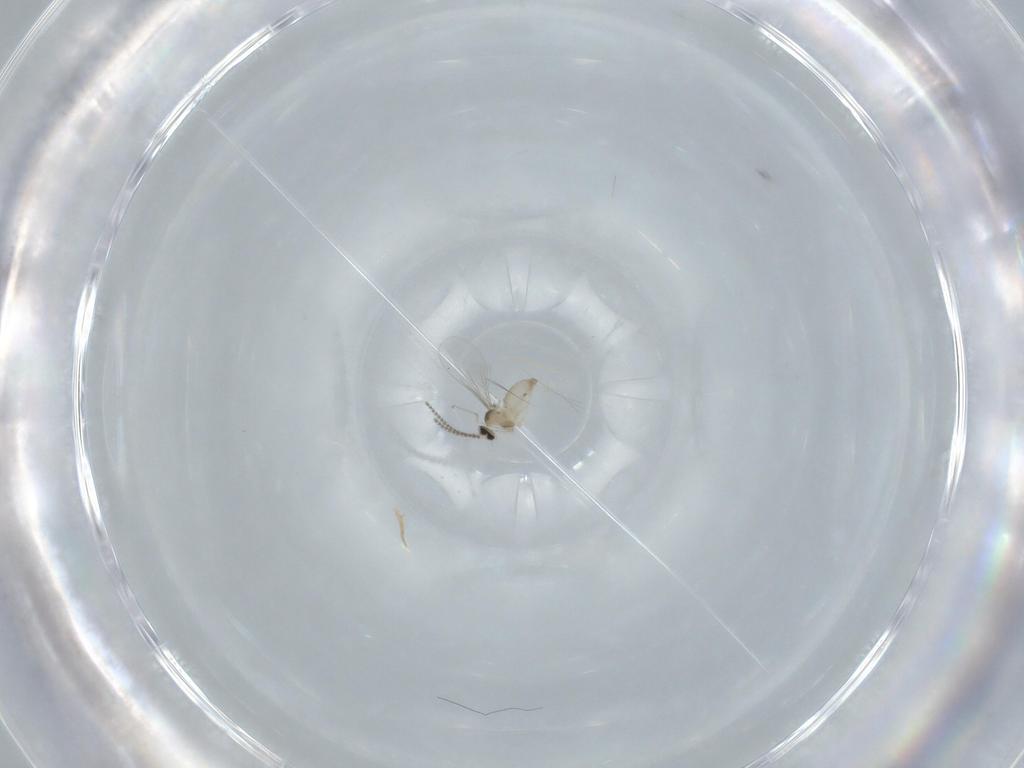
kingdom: Animalia
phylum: Arthropoda
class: Insecta
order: Diptera
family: Cecidomyiidae
